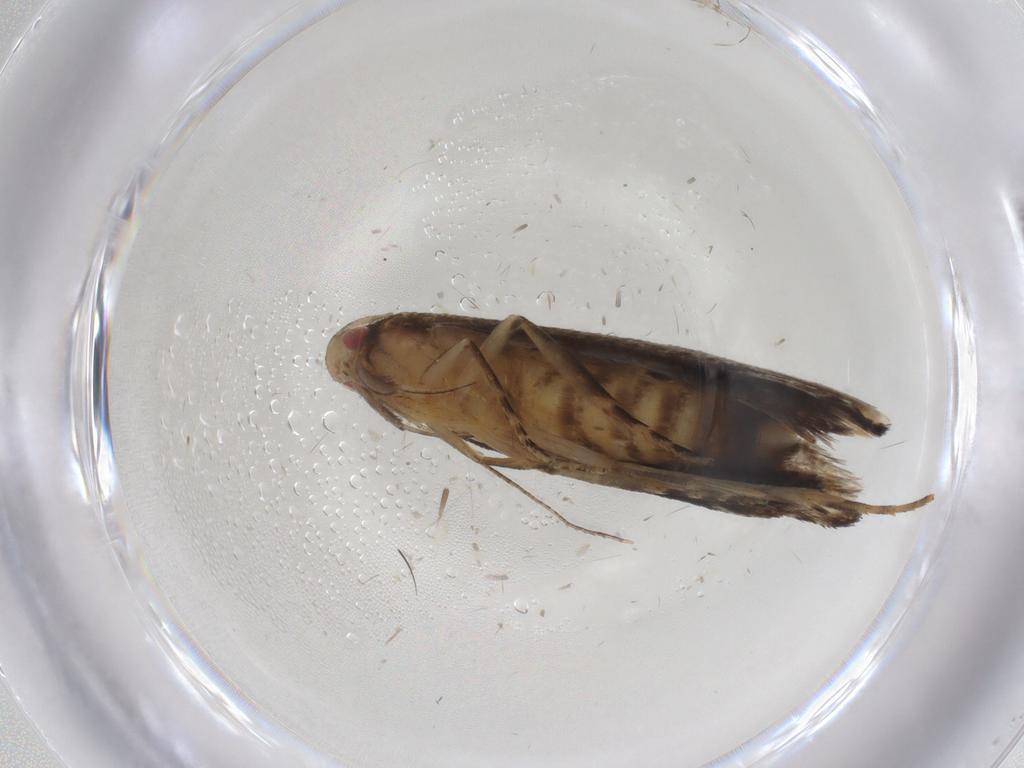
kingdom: Animalia
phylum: Arthropoda
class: Insecta
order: Lepidoptera
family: Gelechiidae
